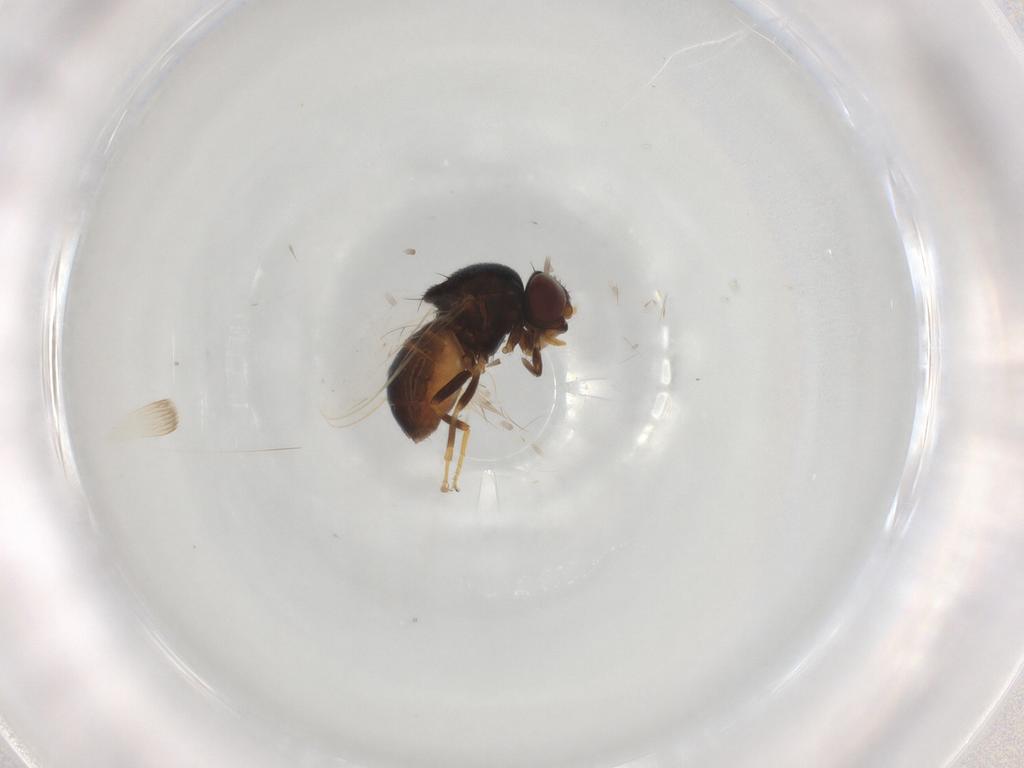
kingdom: Animalia
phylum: Arthropoda
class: Insecta
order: Diptera
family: Chloropidae
